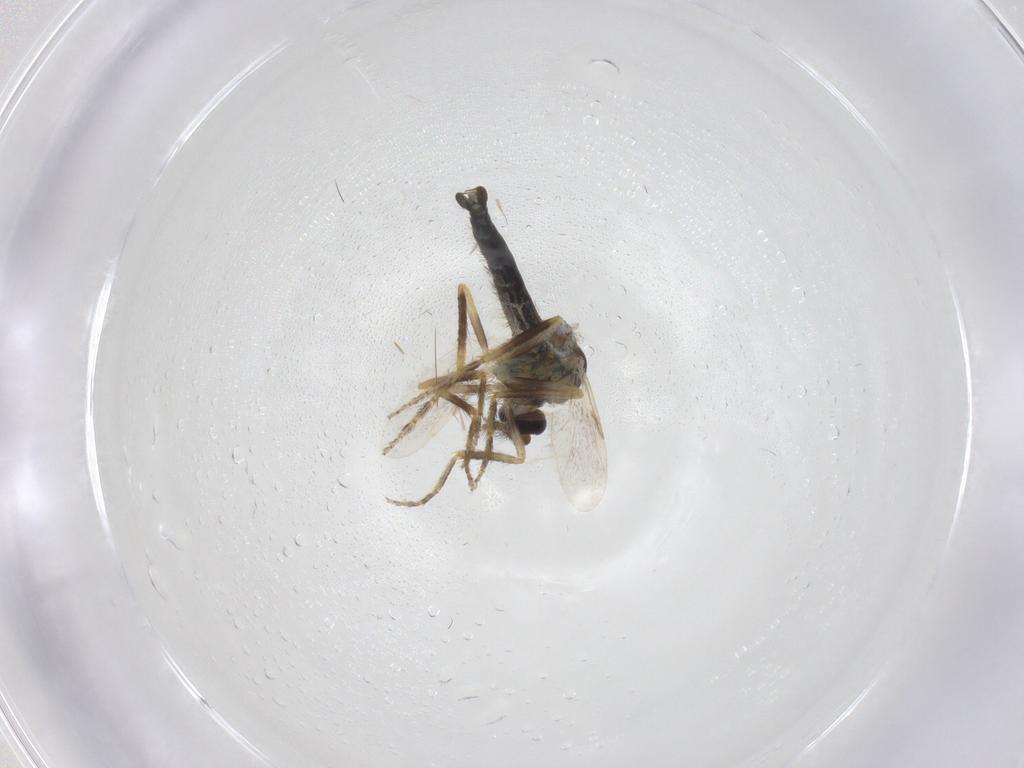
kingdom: Animalia
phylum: Arthropoda
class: Insecta
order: Diptera
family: Ceratopogonidae
